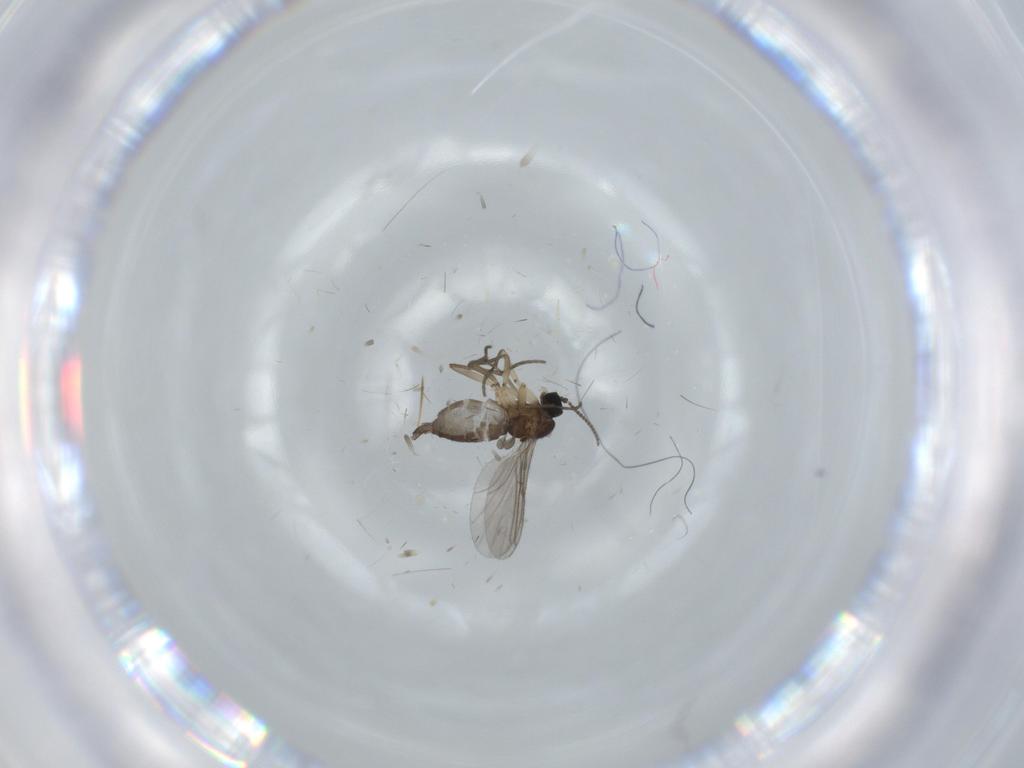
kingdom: Animalia
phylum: Arthropoda
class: Insecta
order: Diptera
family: Sciaridae
